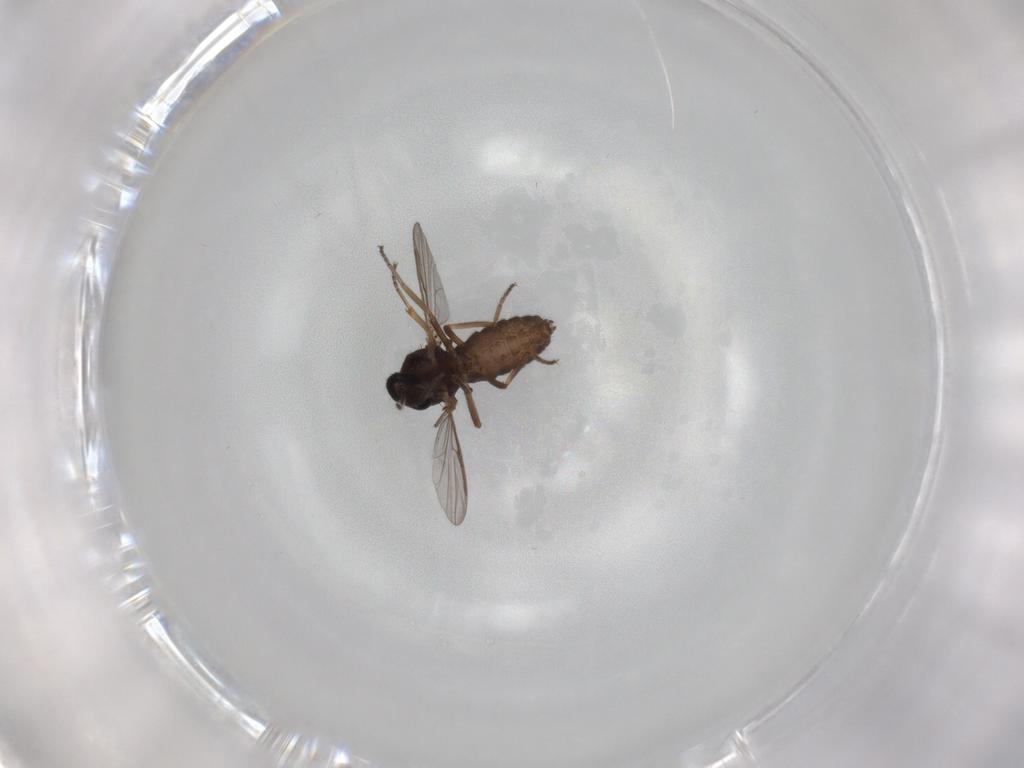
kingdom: Animalia
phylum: Arthropoda
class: Insecta
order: Diptera
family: Ceratopogonidae
